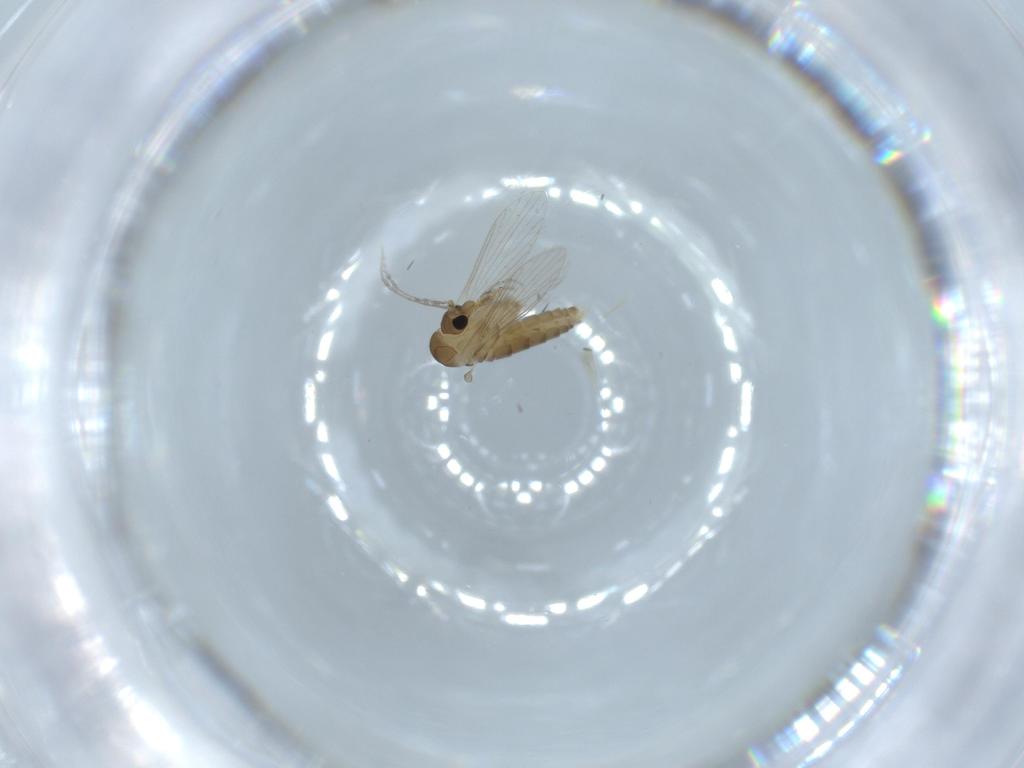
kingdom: Animalia
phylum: Arthropoda
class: Insecta
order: Diptera
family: Psychodidae
